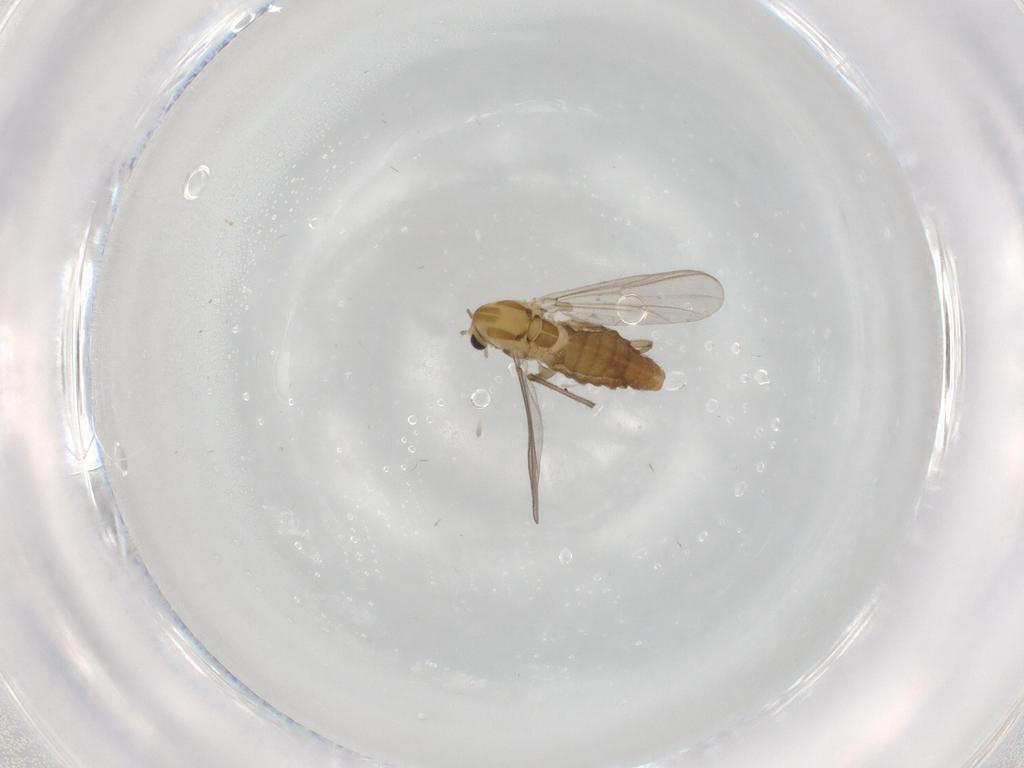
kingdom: Animalia
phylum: Arthropoda
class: Insecta
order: Diptera
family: Chironomidae
